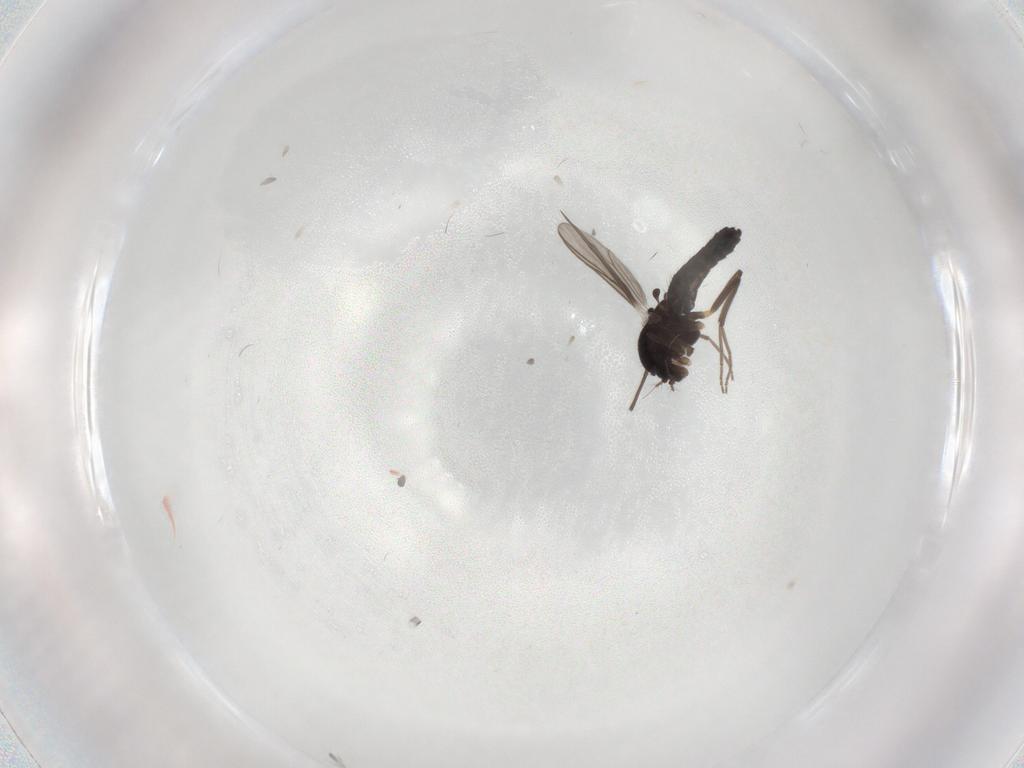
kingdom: Animalia
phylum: Arthropoda
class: Insecta
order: Diptera
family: Chironomidae
